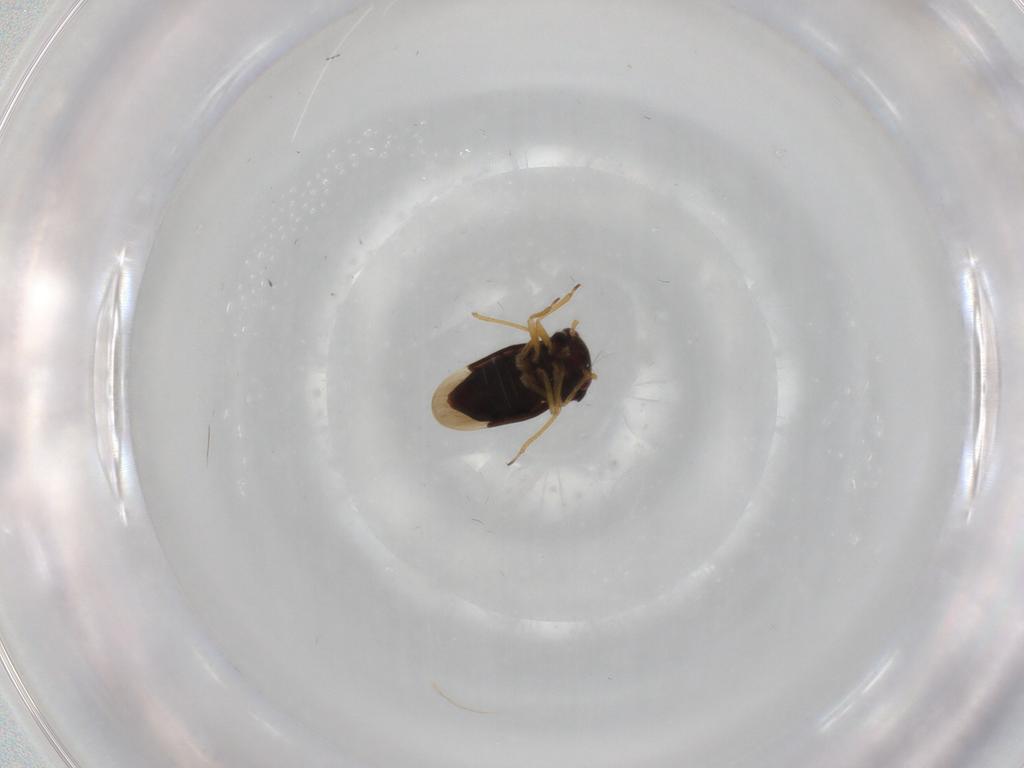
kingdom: Animalia
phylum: Arthropoda
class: Insecta
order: Hemiptera
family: Schizopteridae
